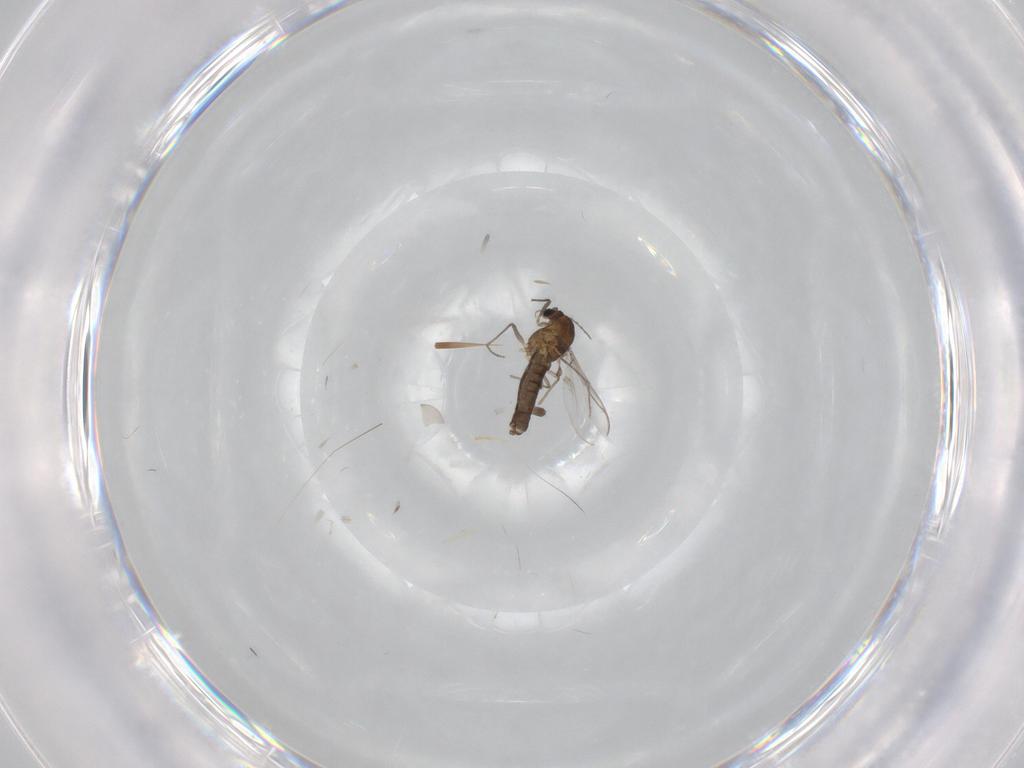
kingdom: Animalia
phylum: Arthropoda
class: Insecta
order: Diptera
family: Chironomidae
